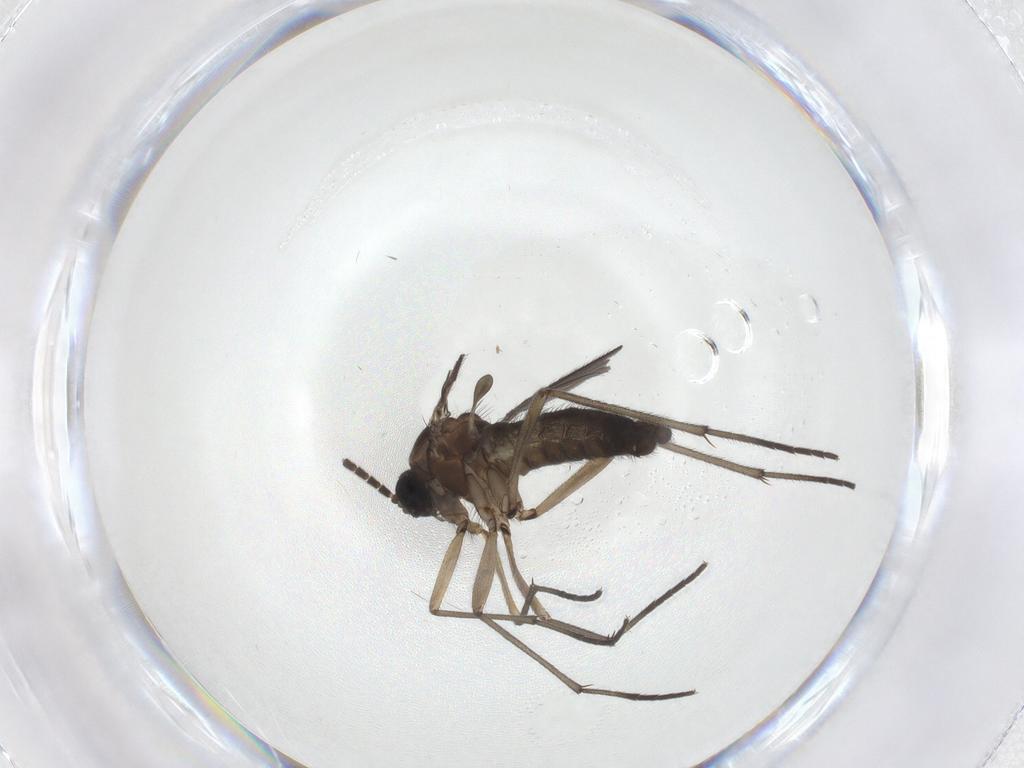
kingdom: Animalia
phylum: Arthropoda
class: Insecta
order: Diptera
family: Sciaridae
